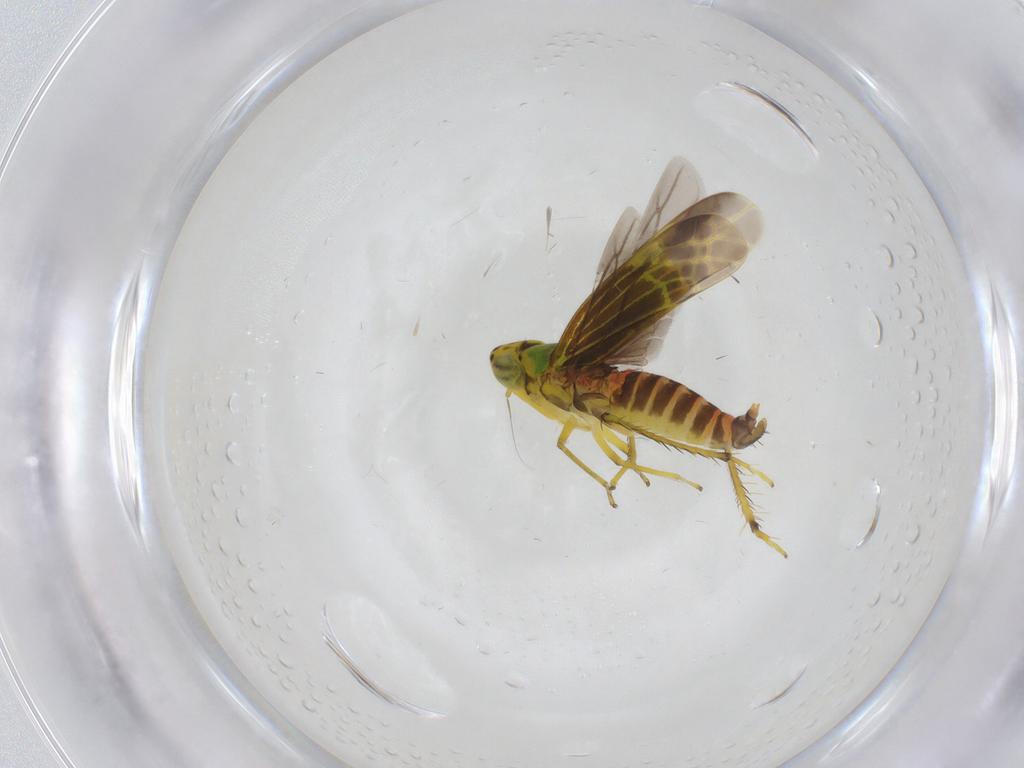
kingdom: Animalia
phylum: Arthropoda
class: Insecta
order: Hemiptera
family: Cicadellidae
